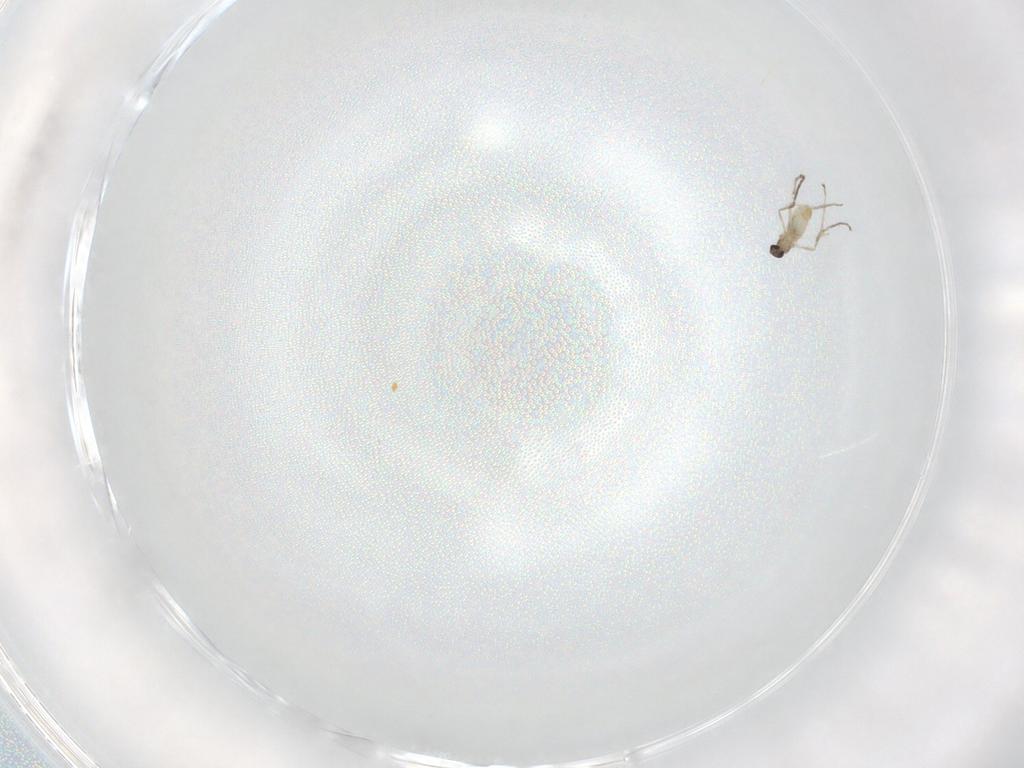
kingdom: Animalia
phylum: Arthropoda
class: Insecta
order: Diptera
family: Cecidomyiidae
